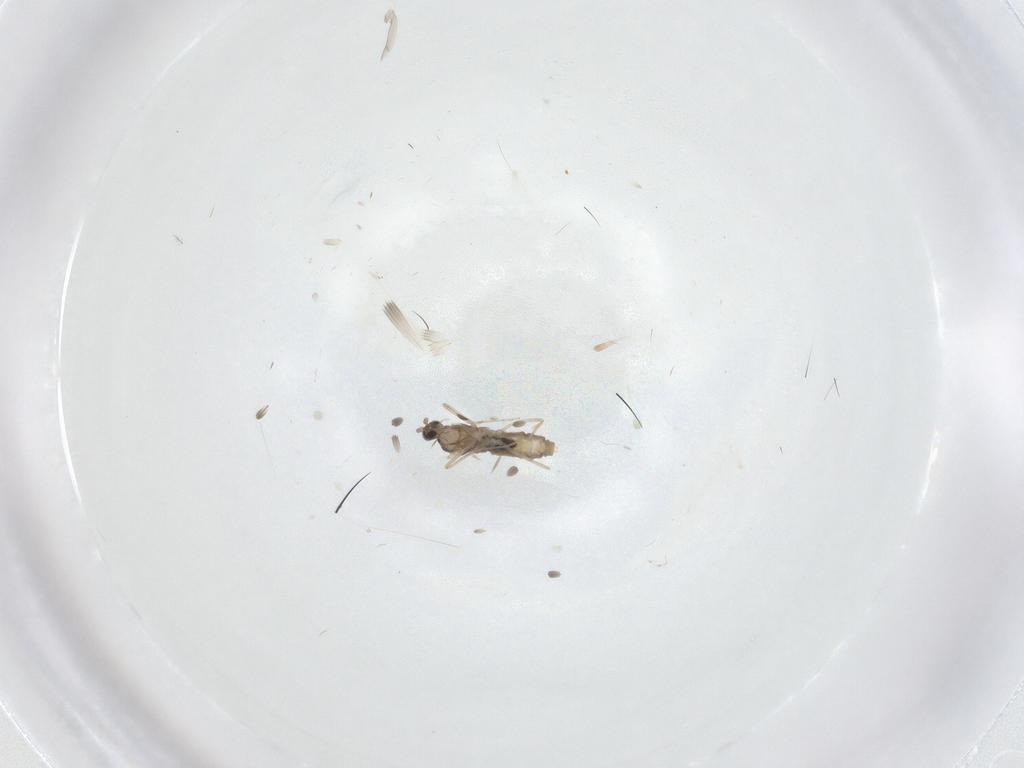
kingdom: Animalia
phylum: Arthropoda
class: Insecta
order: Diptera
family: Cecidomyiidae
